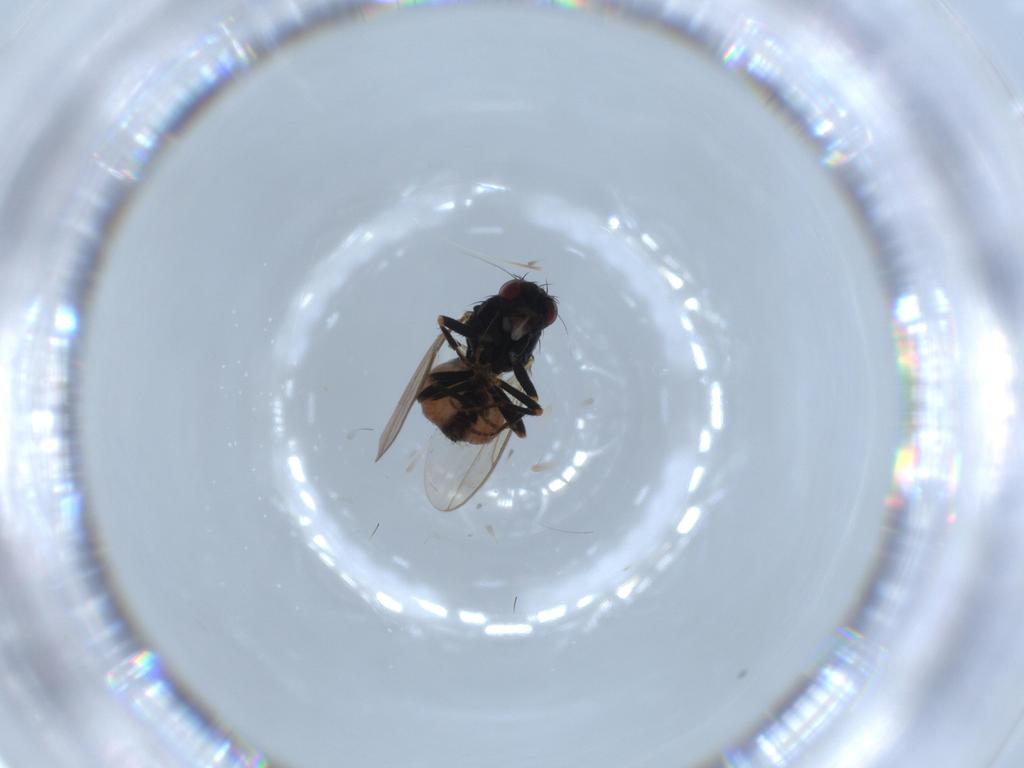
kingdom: Animalia
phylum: Arthropoda
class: Insecta
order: Diptera
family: Sphaeroceridae
